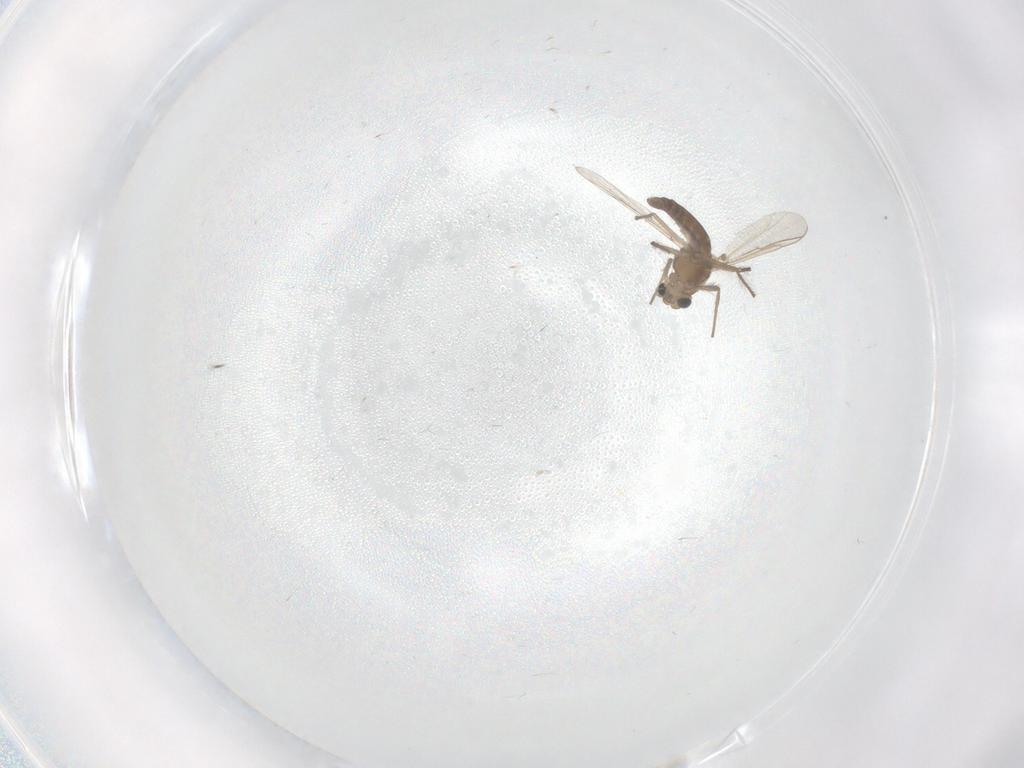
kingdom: Animalia
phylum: Arthropoda
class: Insecta
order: Diptera
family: Chironomidae
